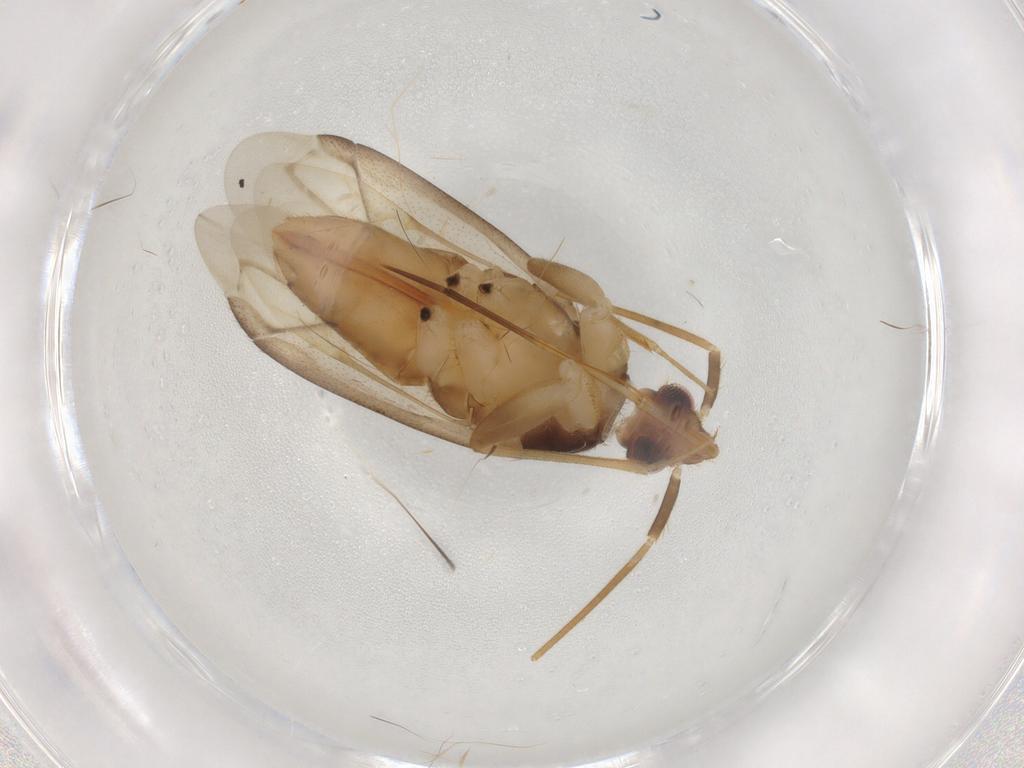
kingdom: Animalia
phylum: Arthropoda
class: Insecta
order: Hemiptera
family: Miridae
